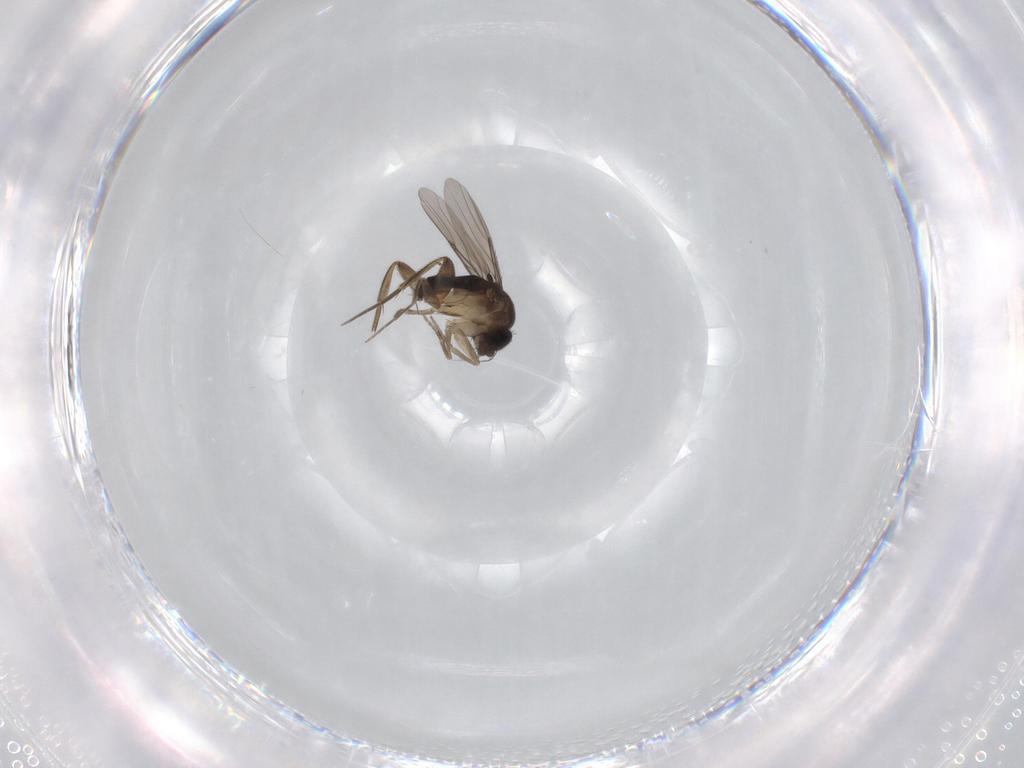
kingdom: Animalia
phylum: Arthropoda
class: Insecta
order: Diptera
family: Phoridae
